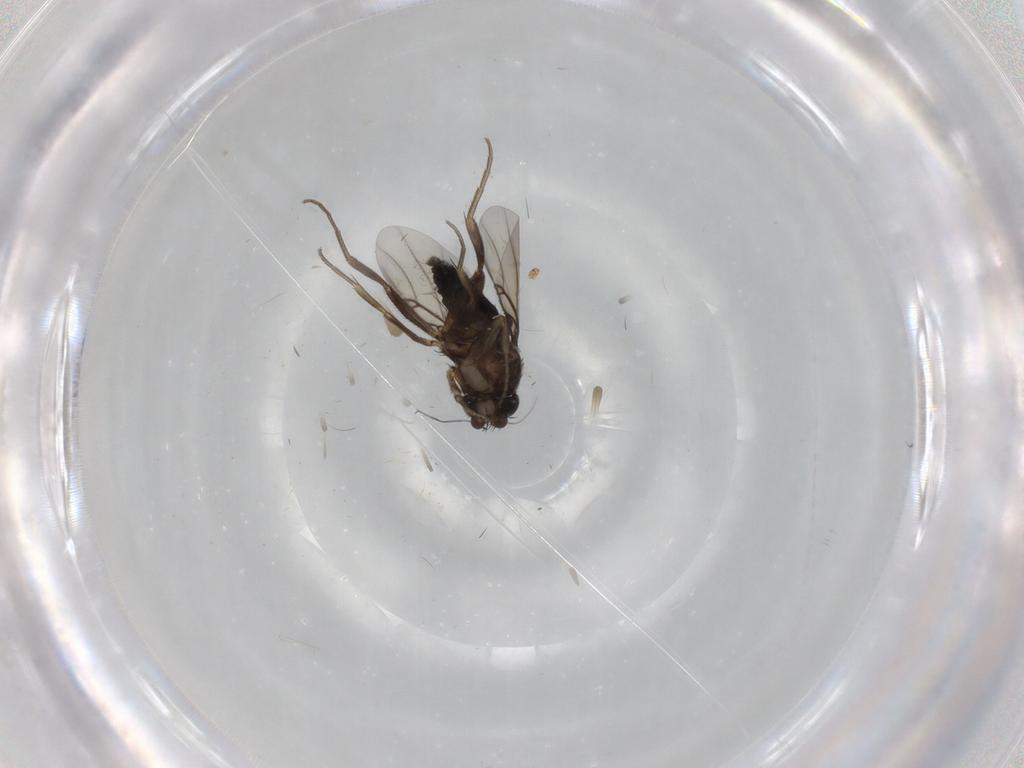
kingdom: Animalia
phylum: Arthropoda
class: Insecta
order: Diptera
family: Phoridae
